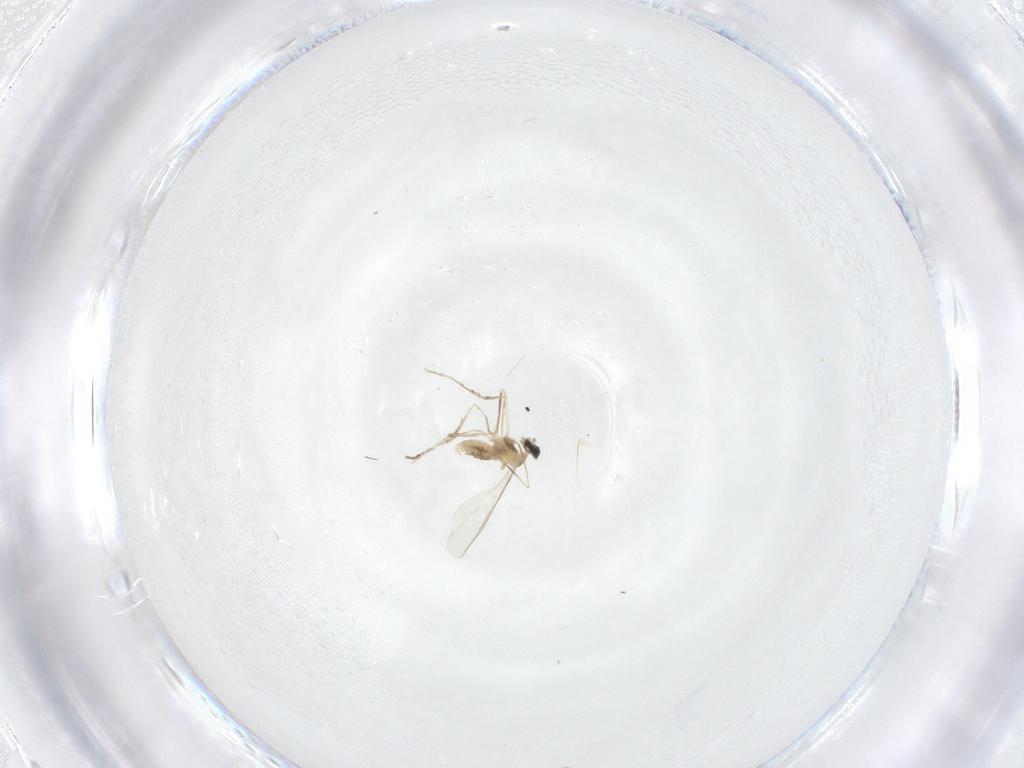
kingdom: Animalia
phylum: Arthropoda
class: Insecta
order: Diptera
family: Cecidomyiidae
